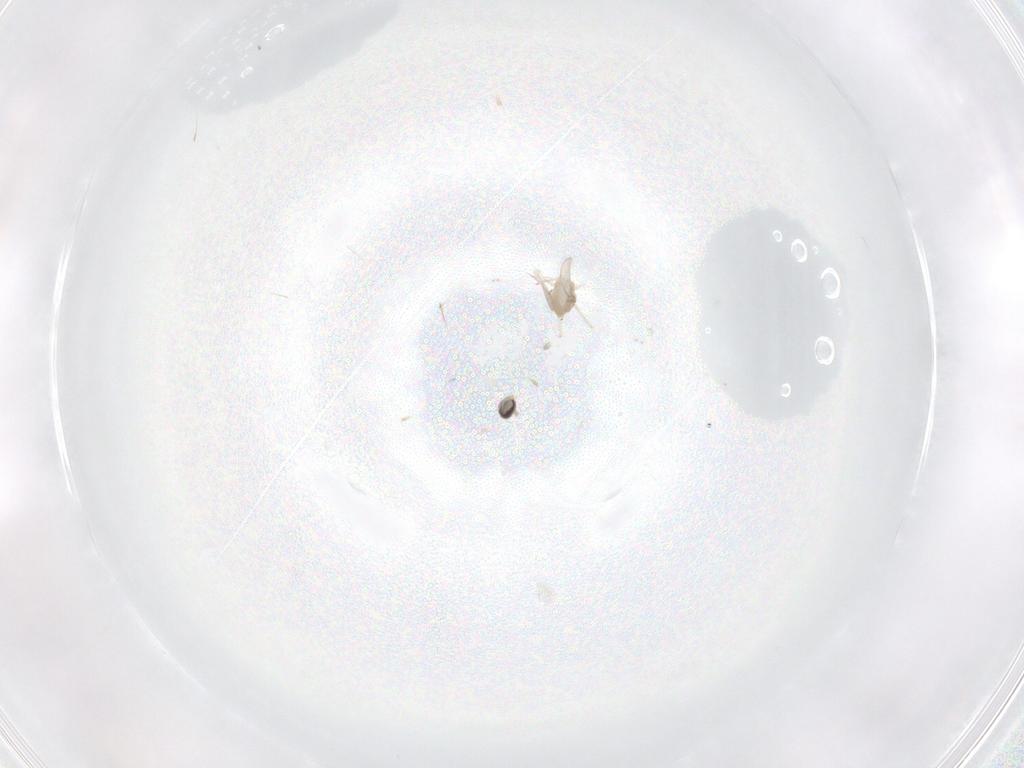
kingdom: Animalia
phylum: Arthropoda
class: Insecta
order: Diptera
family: Cecidomyiidae
